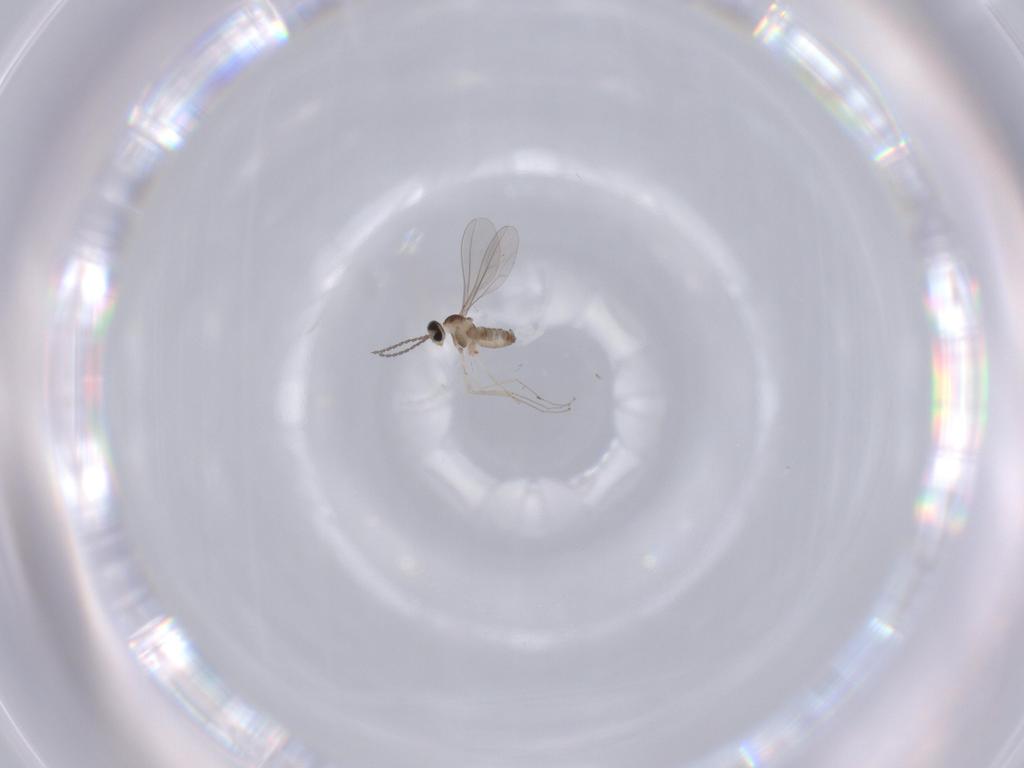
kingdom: Animalia
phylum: Arthropoda
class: Insecta
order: Diptera
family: Cecidomyiidae
